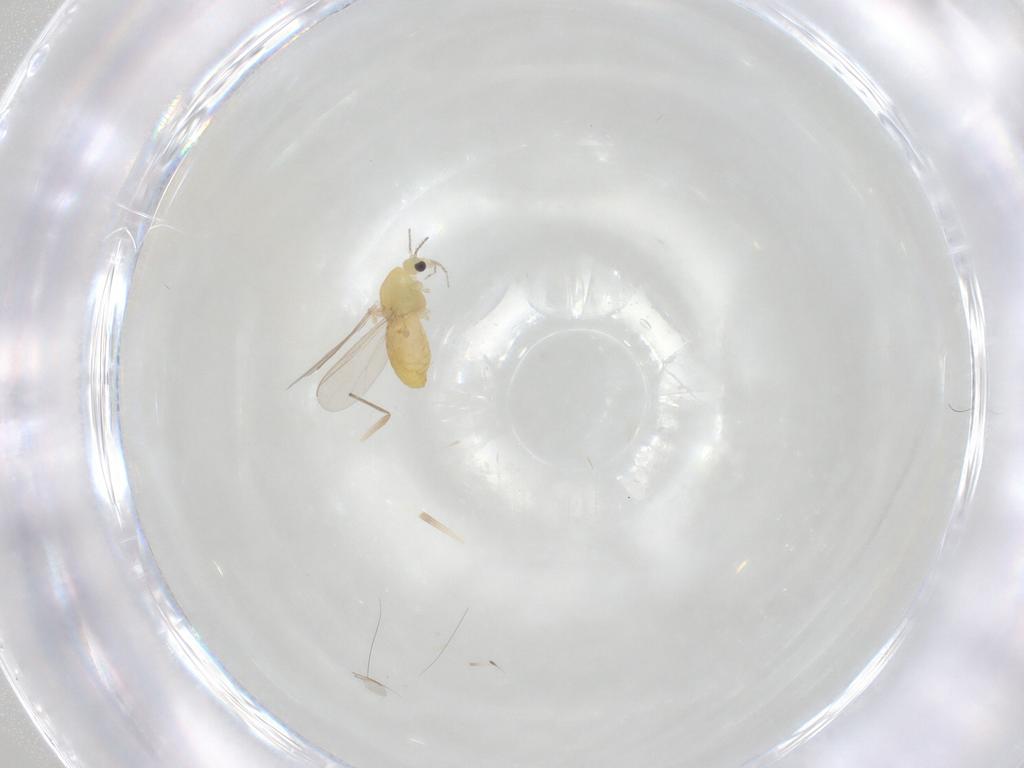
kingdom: Animalia
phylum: Arthropoda
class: Insecta
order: Diptera
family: Chironomidae
